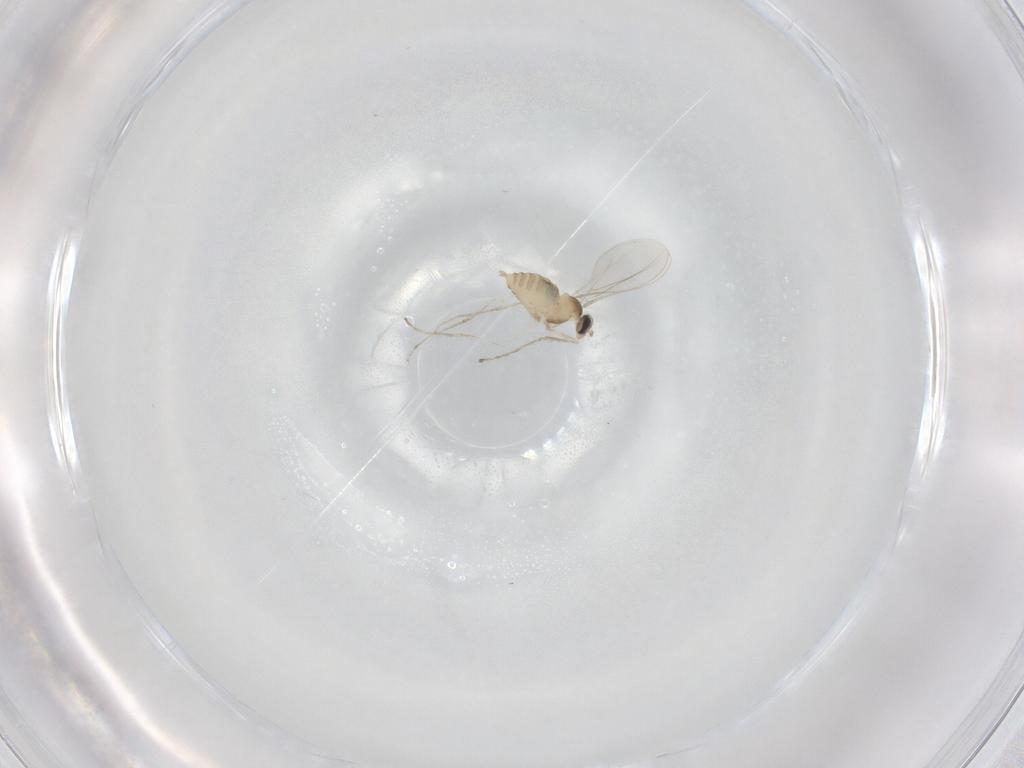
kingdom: Animalia
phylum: Arthropoda
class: Insecta
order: Diptera
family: Cecidomyiidae
